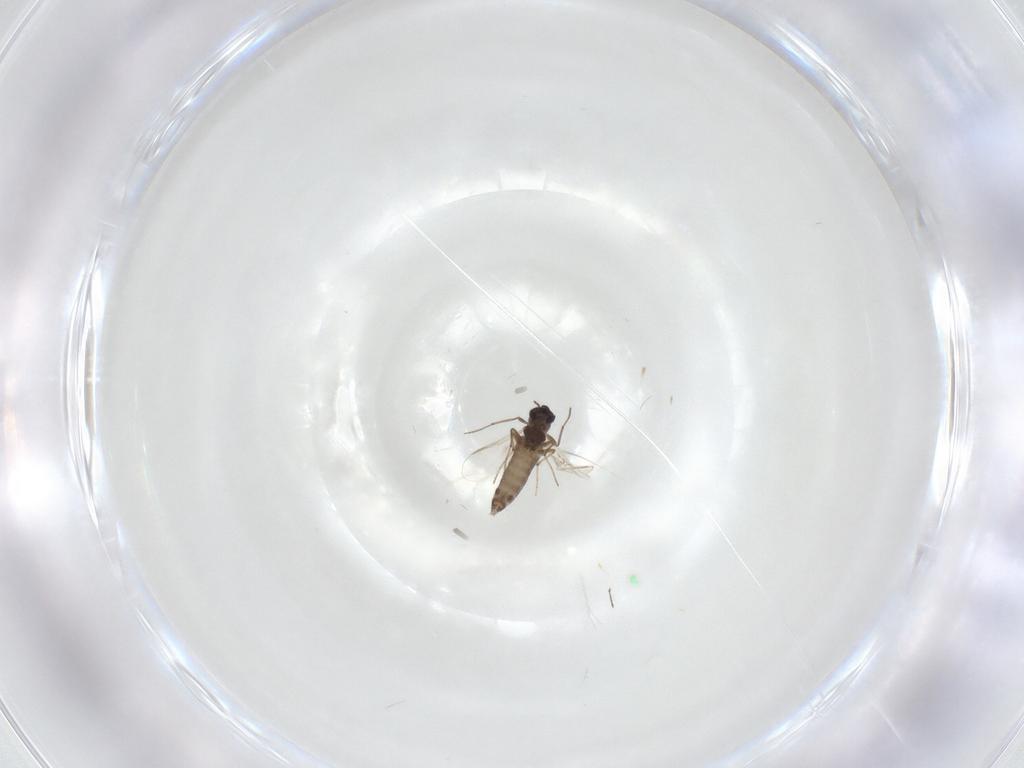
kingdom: Animalia
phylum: Arthropoda
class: Insecta
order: Diptera
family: Chironomidae
